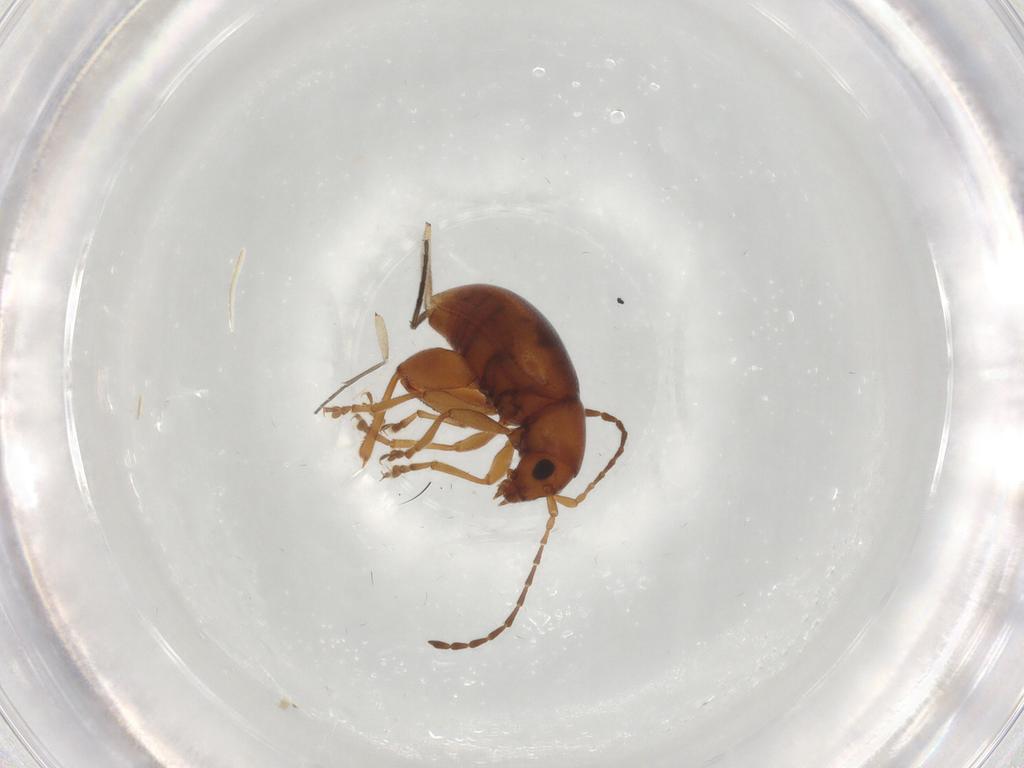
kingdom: Animalia
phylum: Arthropoda
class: Insecta
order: Coleoptera
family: Chrysomelidae
